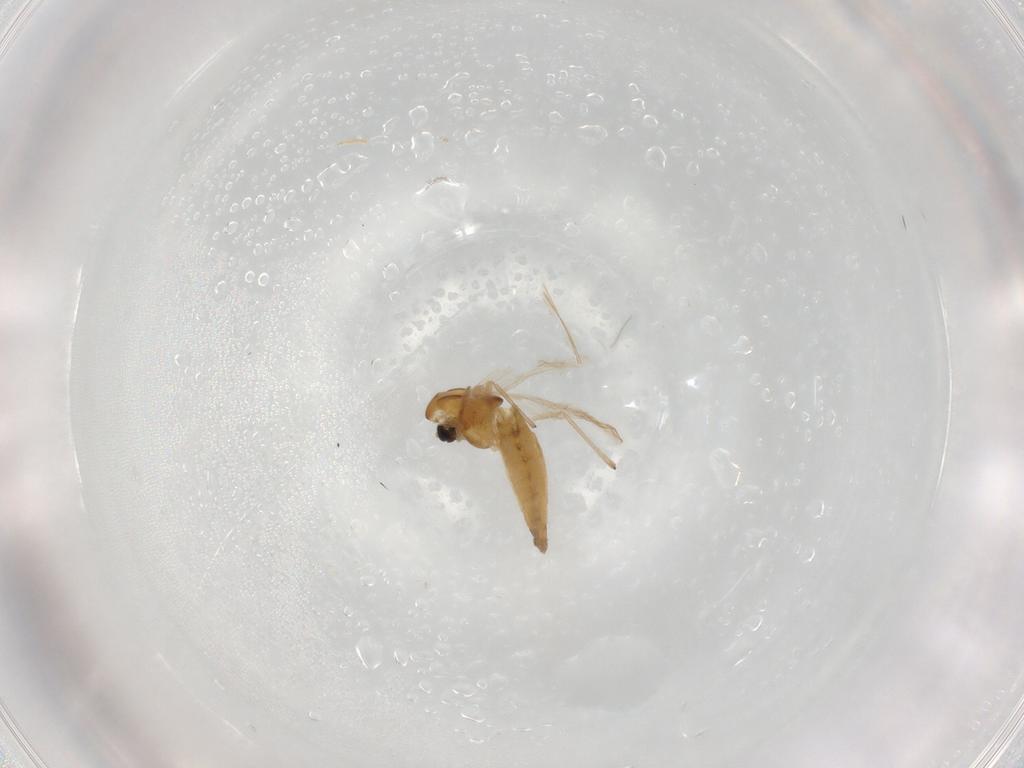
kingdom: Animalia
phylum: Arthropoda
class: Insecta
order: Diptera
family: Chironomidae
